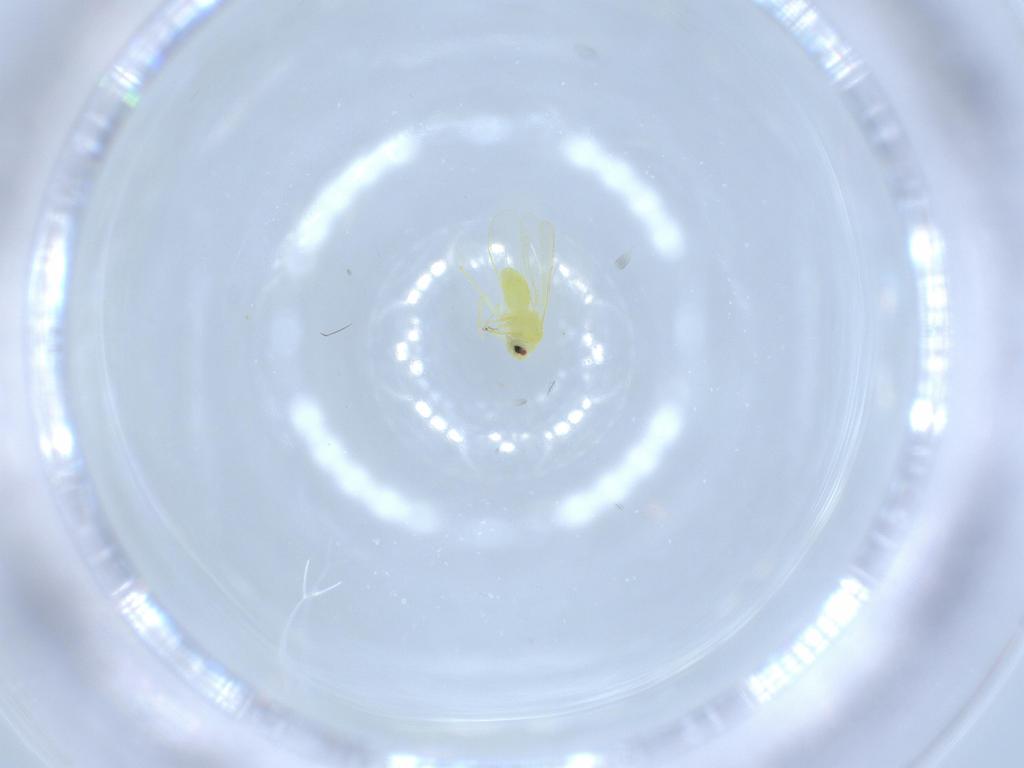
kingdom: Animalia
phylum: Arthropoda
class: Insecta
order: Hemiptera
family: Aleyrodidae
